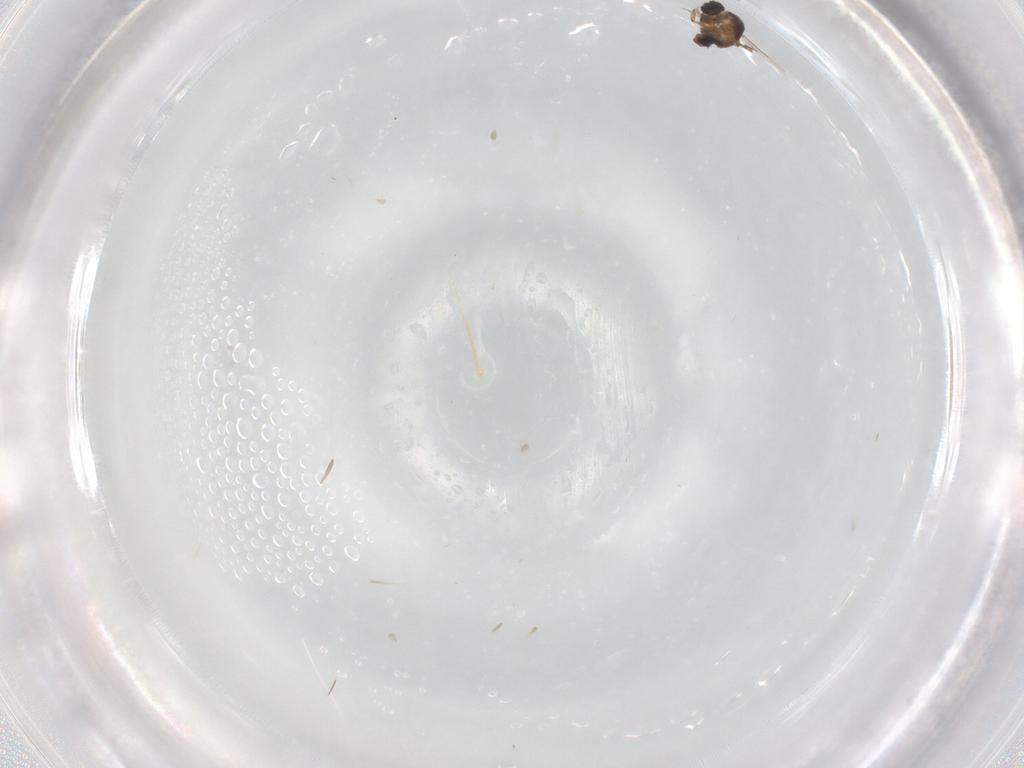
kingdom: Animalia
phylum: Arthropoda
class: Insecta
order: Diptera
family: Ceratopogonidae
